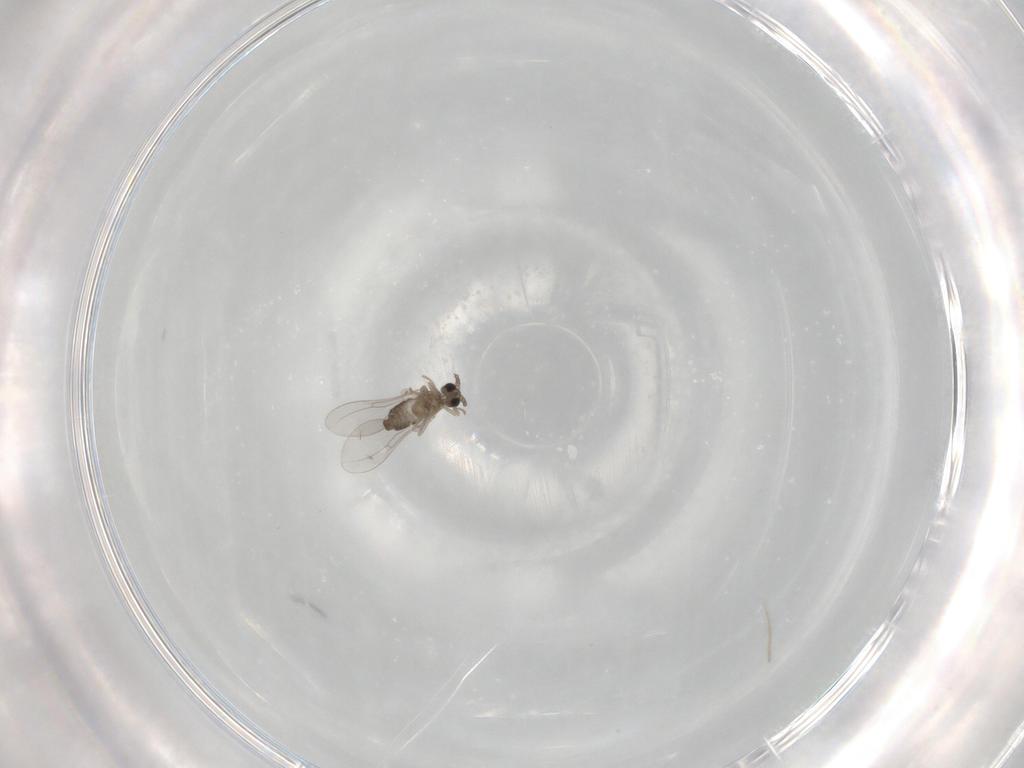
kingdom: Animalia
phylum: Arthropoda
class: Insecta
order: Diptera
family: Cecidomyiidae
